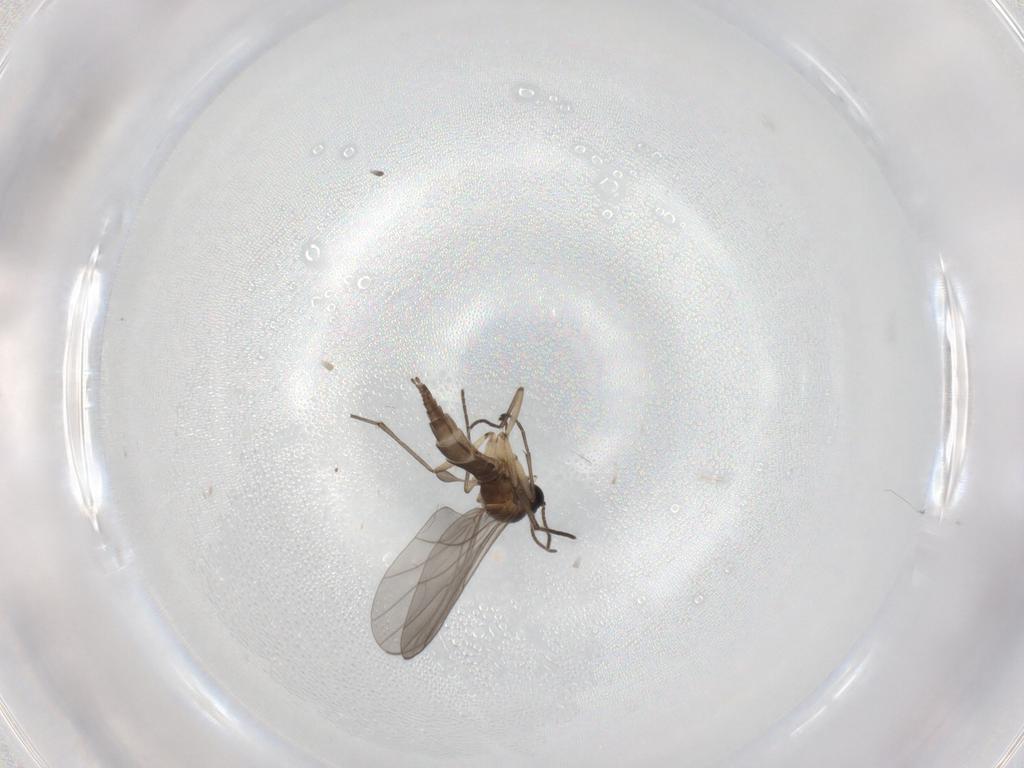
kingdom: Animalia
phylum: Arthropoda
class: Insecta
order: Diptera
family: Sciaridae
